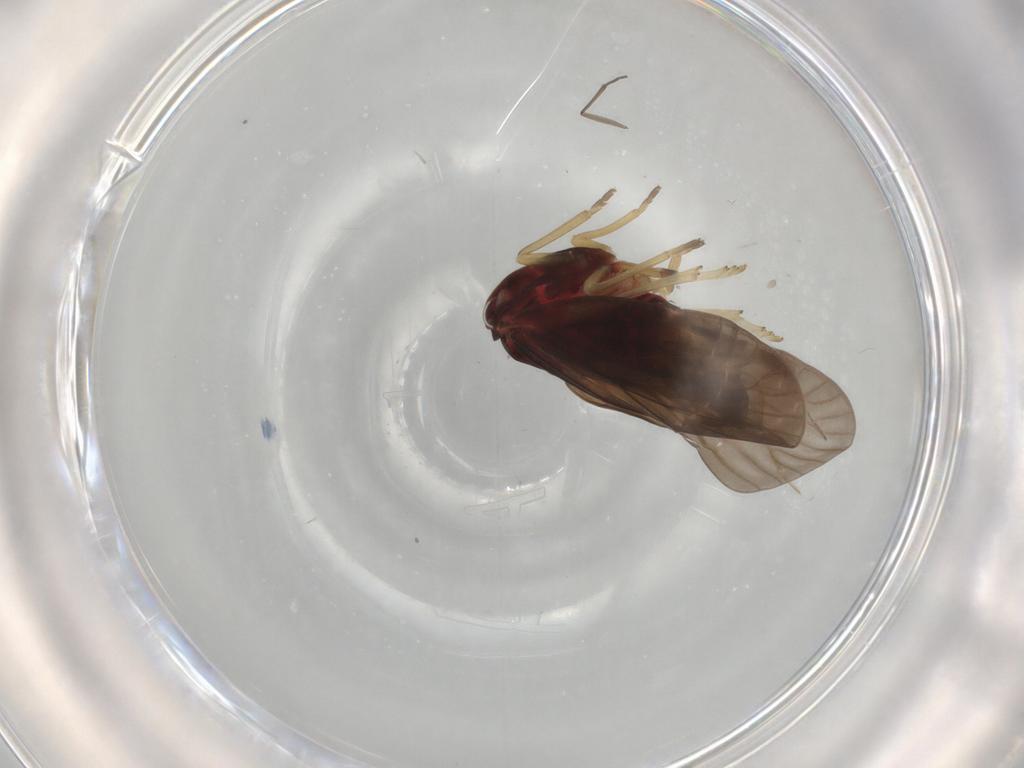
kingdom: Animalia
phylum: Arthropoda
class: Insecta
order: Hemiptera
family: Derbidae
